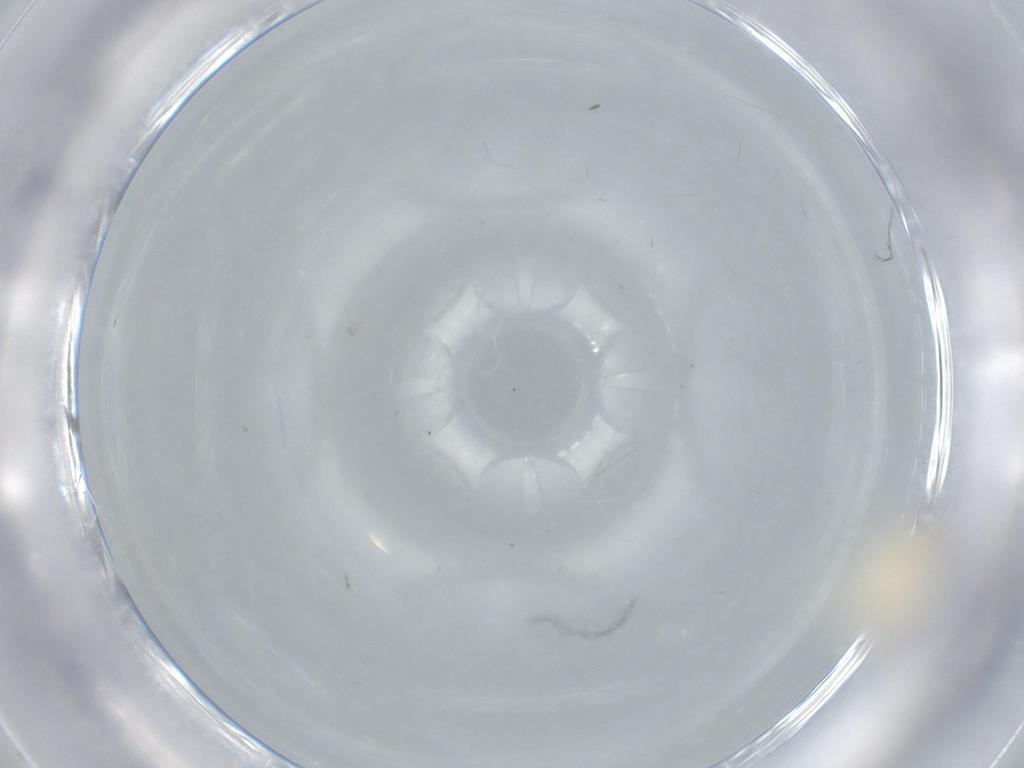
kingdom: Animalia
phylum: Arthropoda
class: Insecta
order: Hemiptera
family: Nogodinidae
